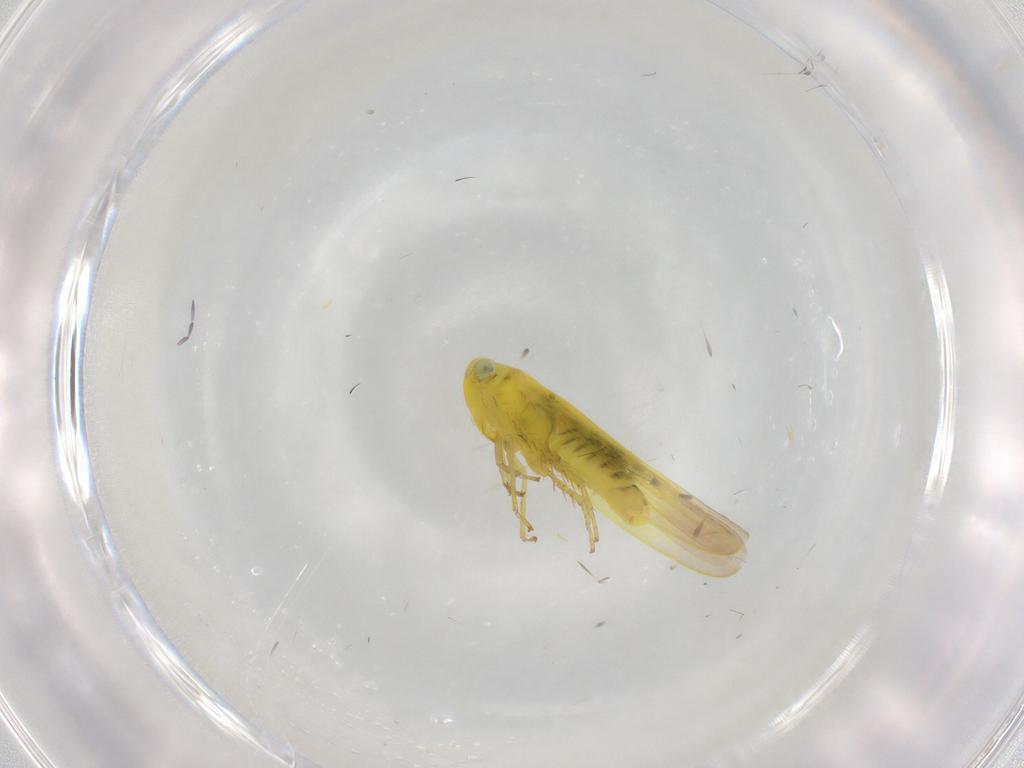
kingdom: Animalia
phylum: Arthropoda
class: Insecta
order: Hemiptera
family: Cicadellidae
